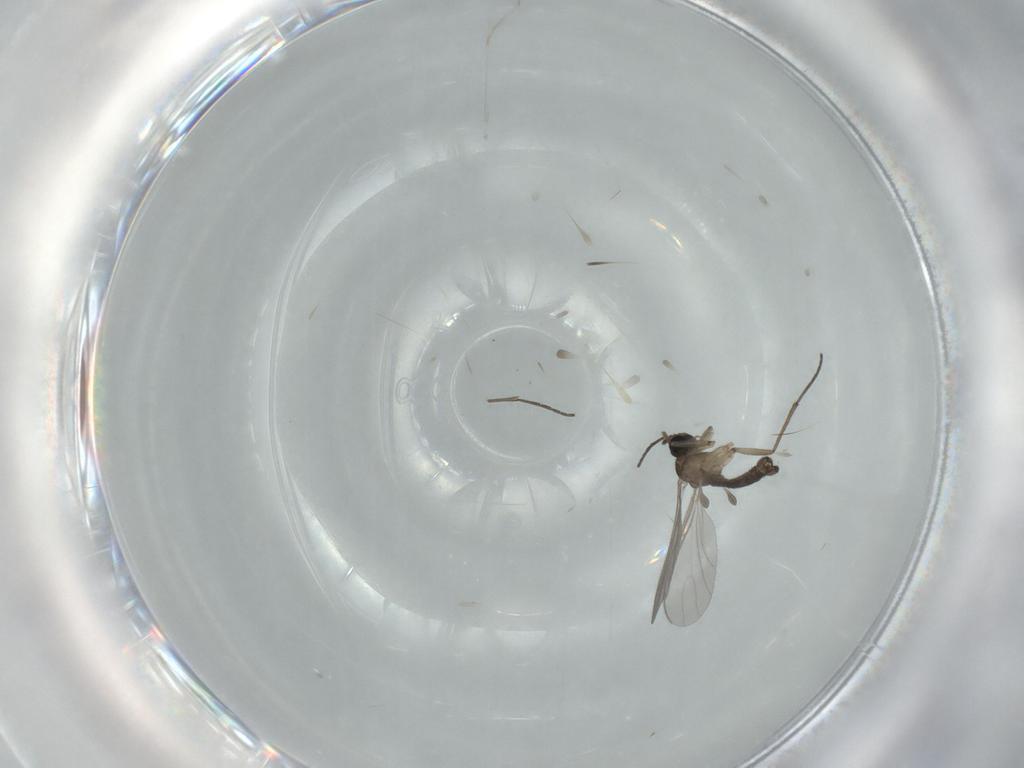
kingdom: Animalia
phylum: Arthropoda
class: Insecta
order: Diptera
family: Sciaridae
